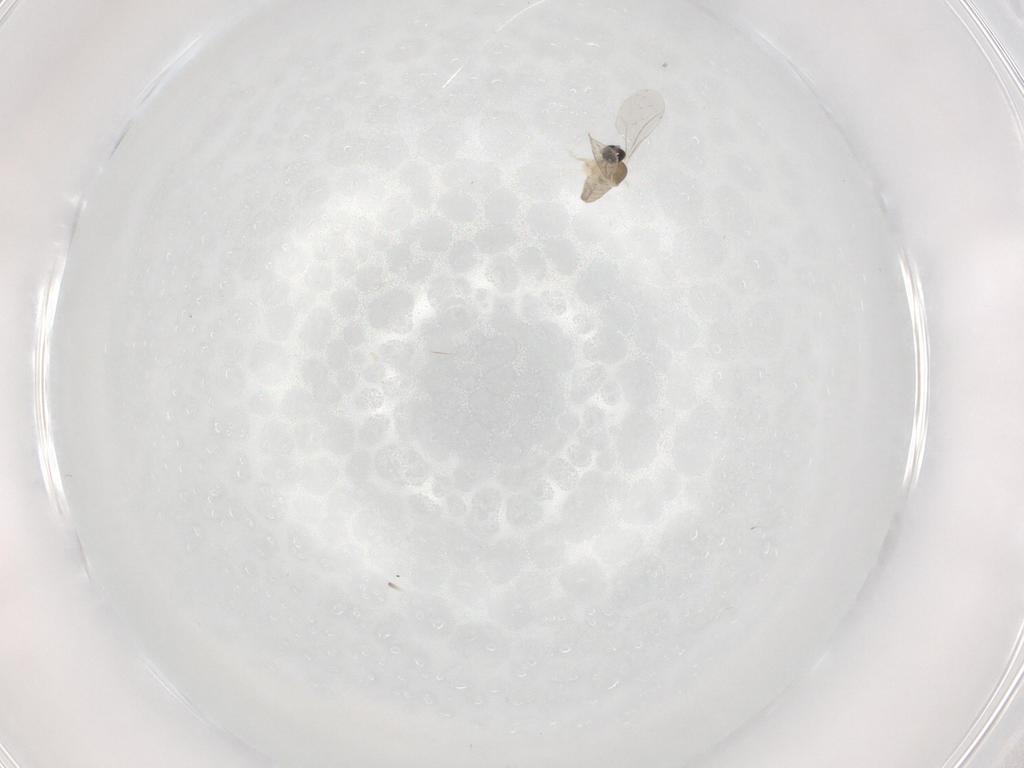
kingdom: Animalia
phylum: Arthropoda
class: Insecta
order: Diptera
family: Cecidomyiidae
